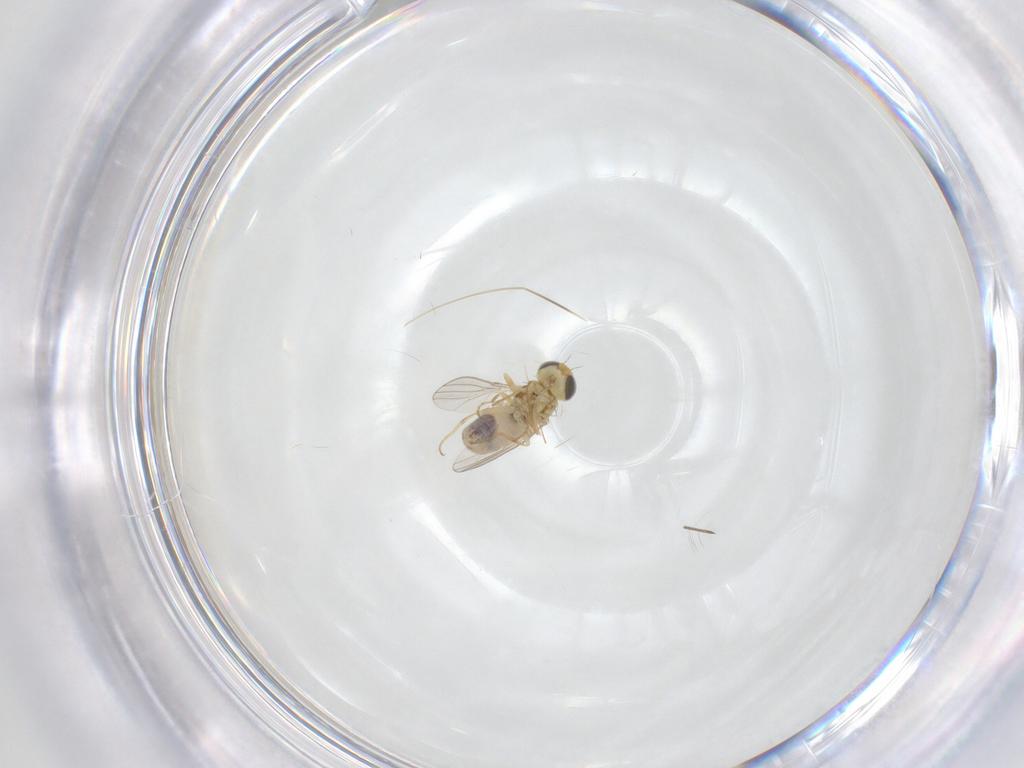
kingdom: Animalia
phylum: Arthropoda
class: Insecta
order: Diptera
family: Chyromyidae
